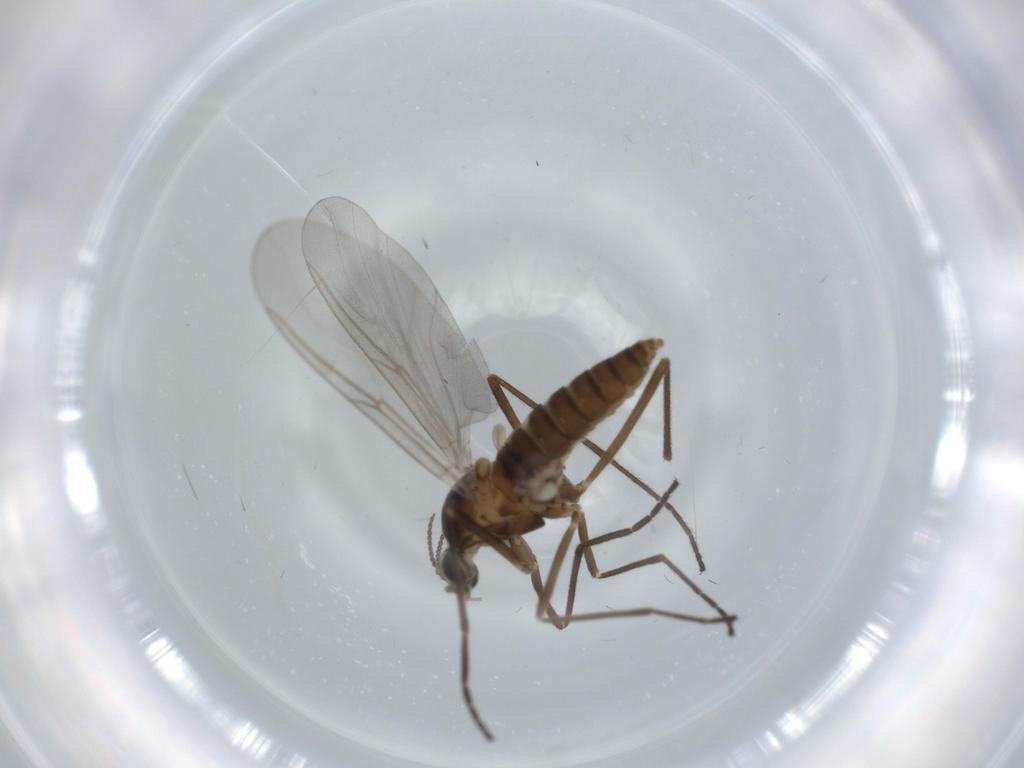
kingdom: Animalia
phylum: Arthropoda
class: Insecta
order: Diptera
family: Cecidomyiidae
